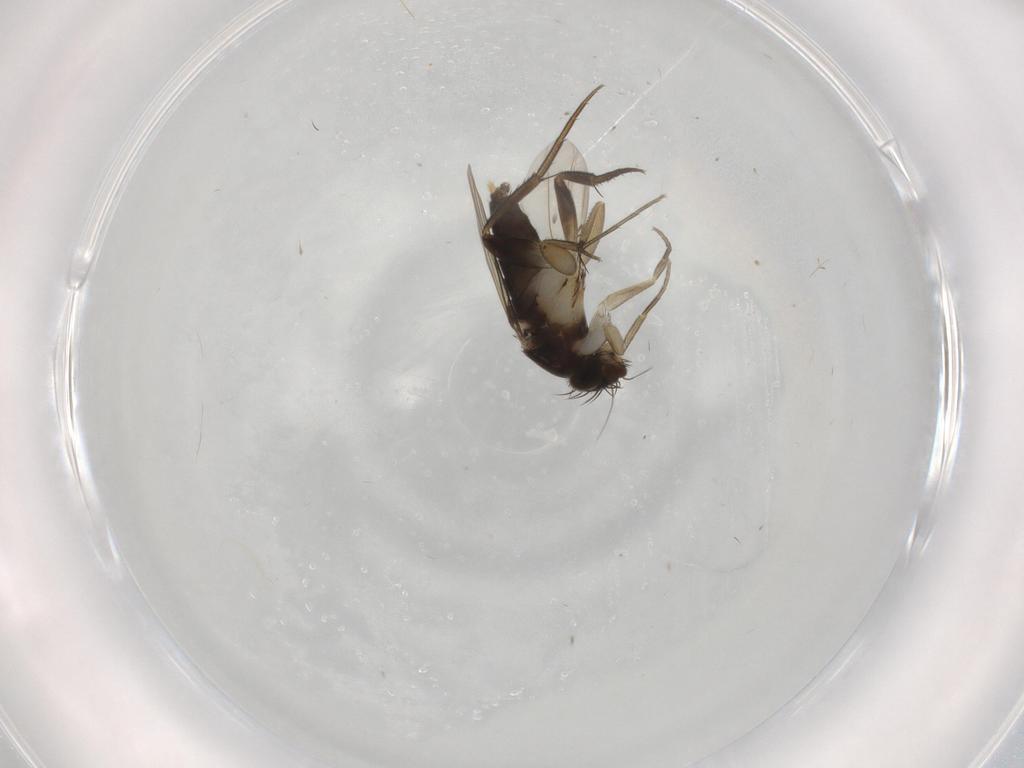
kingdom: Animalia
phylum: Arthropoda
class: Insecta
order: Diptera
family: Phoridae
